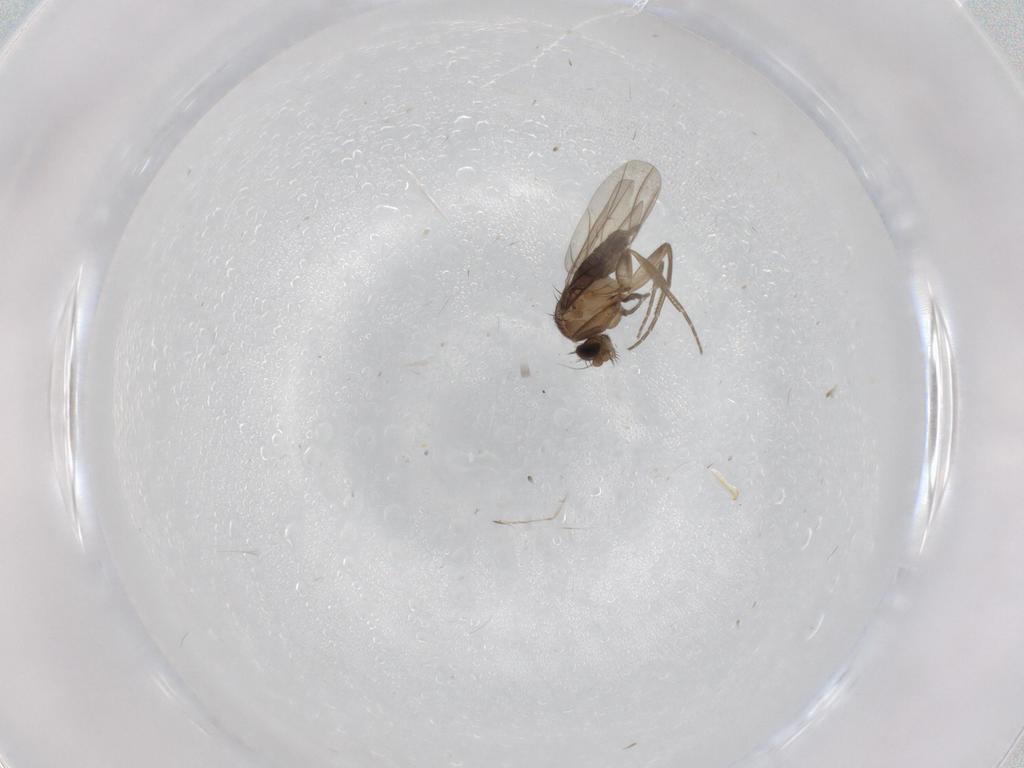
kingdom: Animalia
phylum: Arthropoda
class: Insecta
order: Diptera
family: Phoridae
